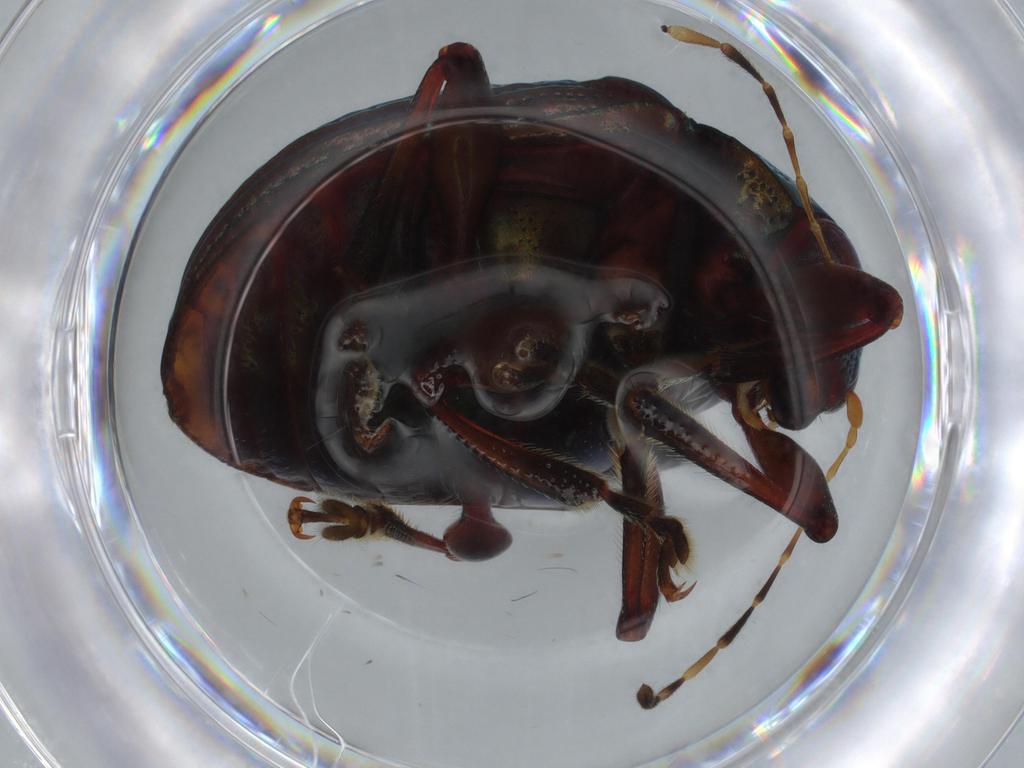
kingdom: Animalia
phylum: Arthropoda
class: Insecta
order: Coleoptera
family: Chrysomelidae
